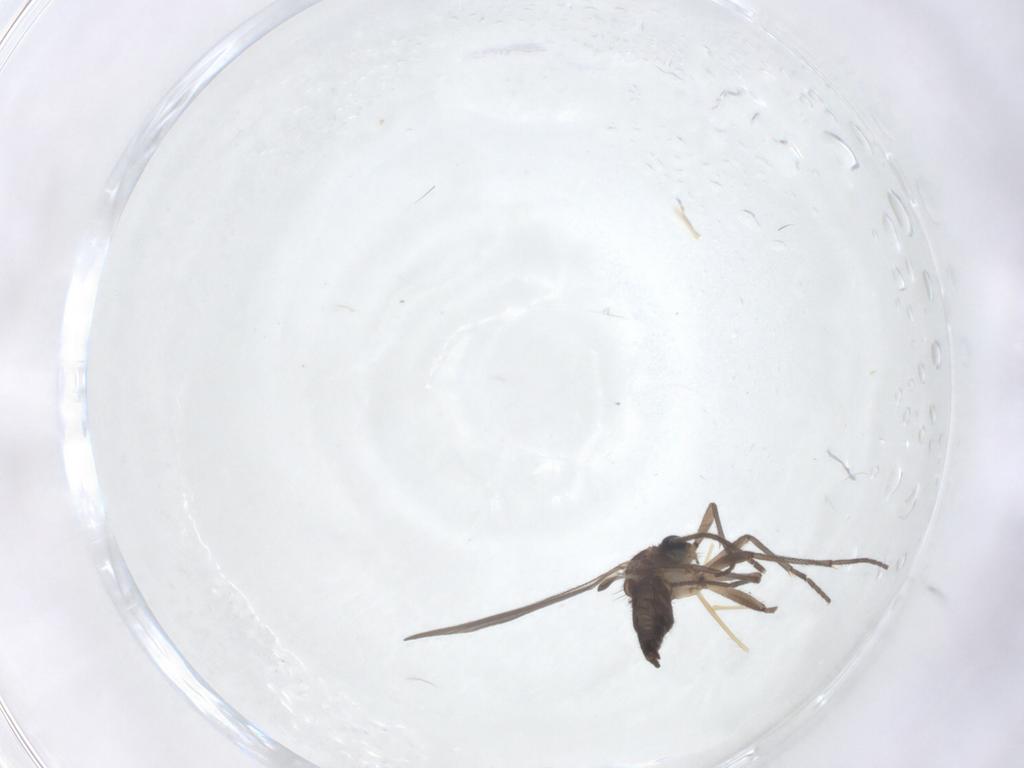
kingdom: Animalia
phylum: Arthropoda
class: Insecta
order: Diptera
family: Sciaridae
